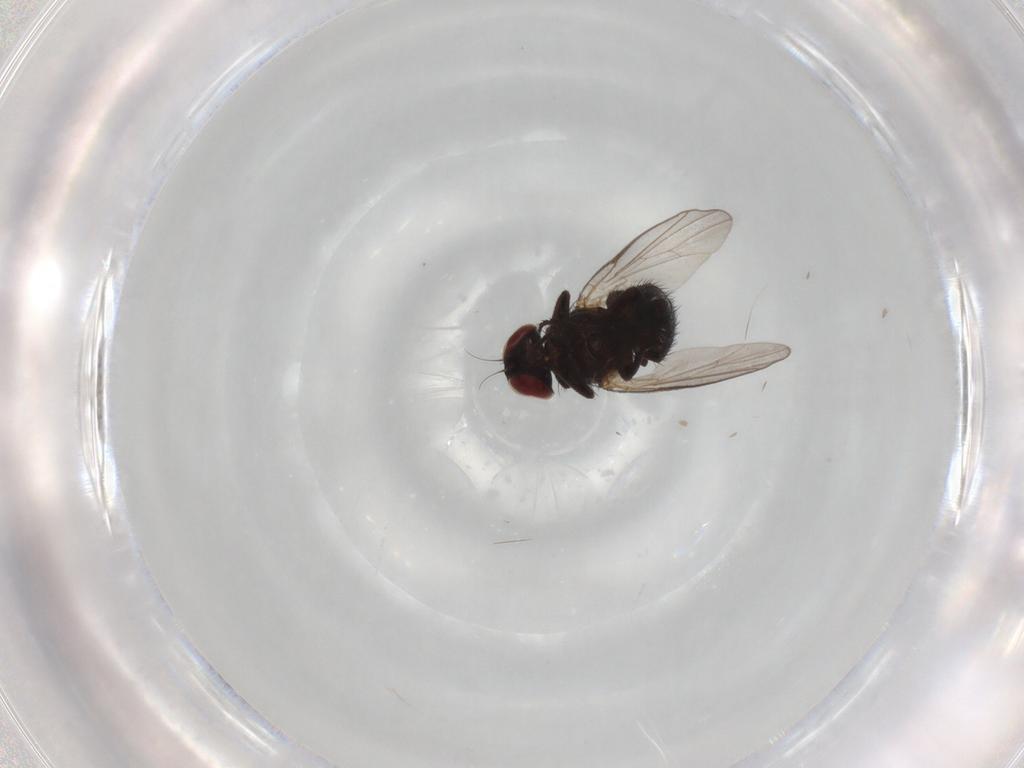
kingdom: Animalia
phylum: Arthropoda
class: Insecta
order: Diptera
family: Agromyzidae
